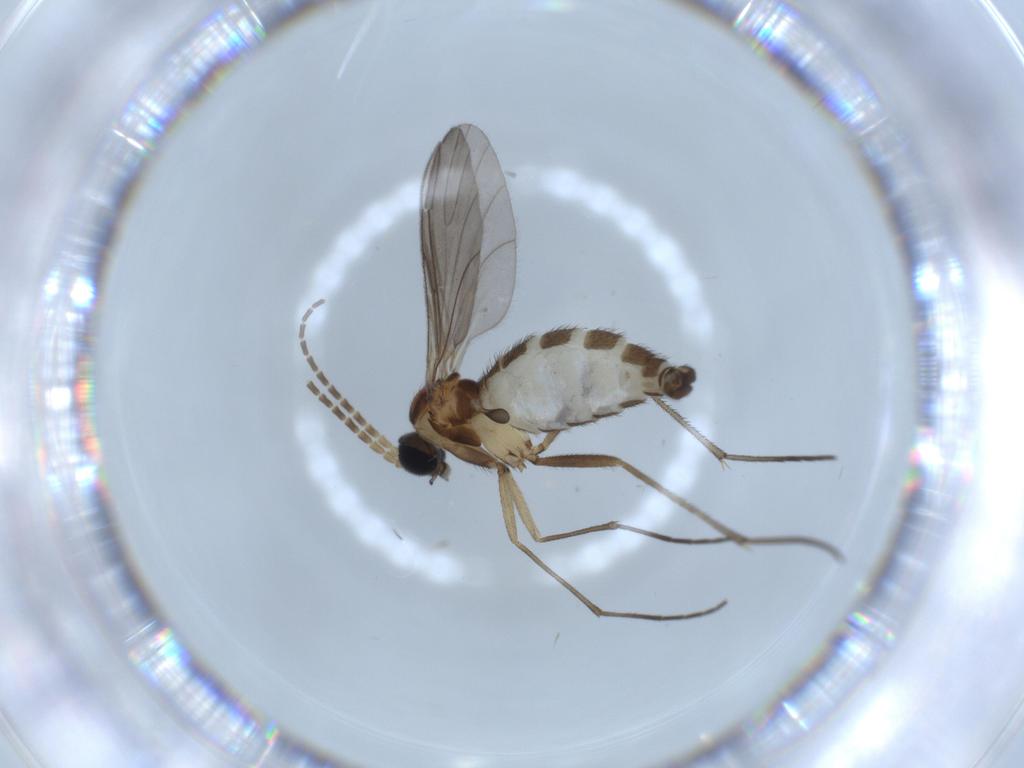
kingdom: Animalia
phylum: Arthropoda
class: Insecta
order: Diptera
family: Sciaridae
